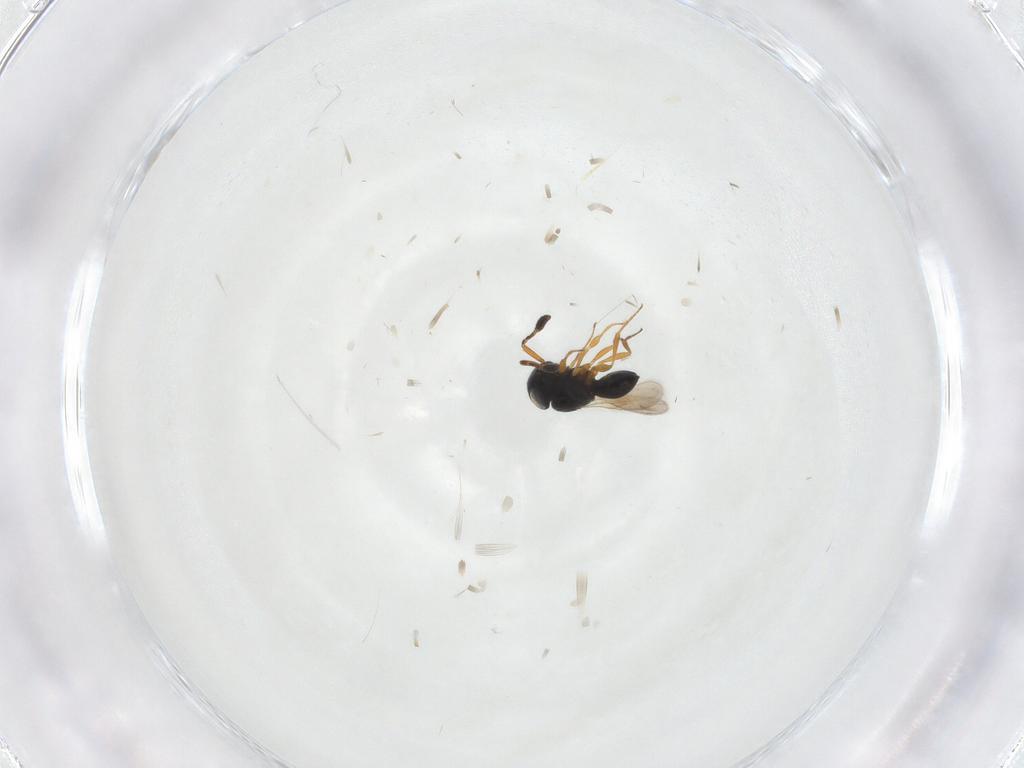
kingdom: Animalia
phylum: Arthropoda
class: Insecta
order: Hymenoptera
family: Scelionidae
